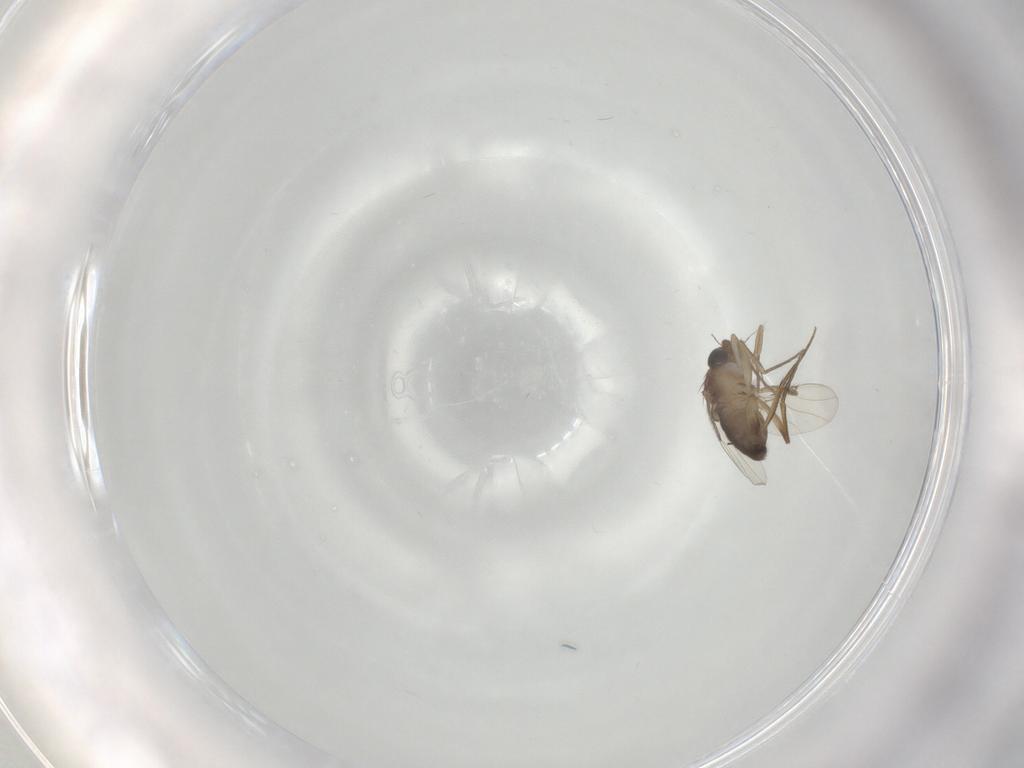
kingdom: Animalia
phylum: Arthropoda
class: Insecta
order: Diptera
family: Phoridae
